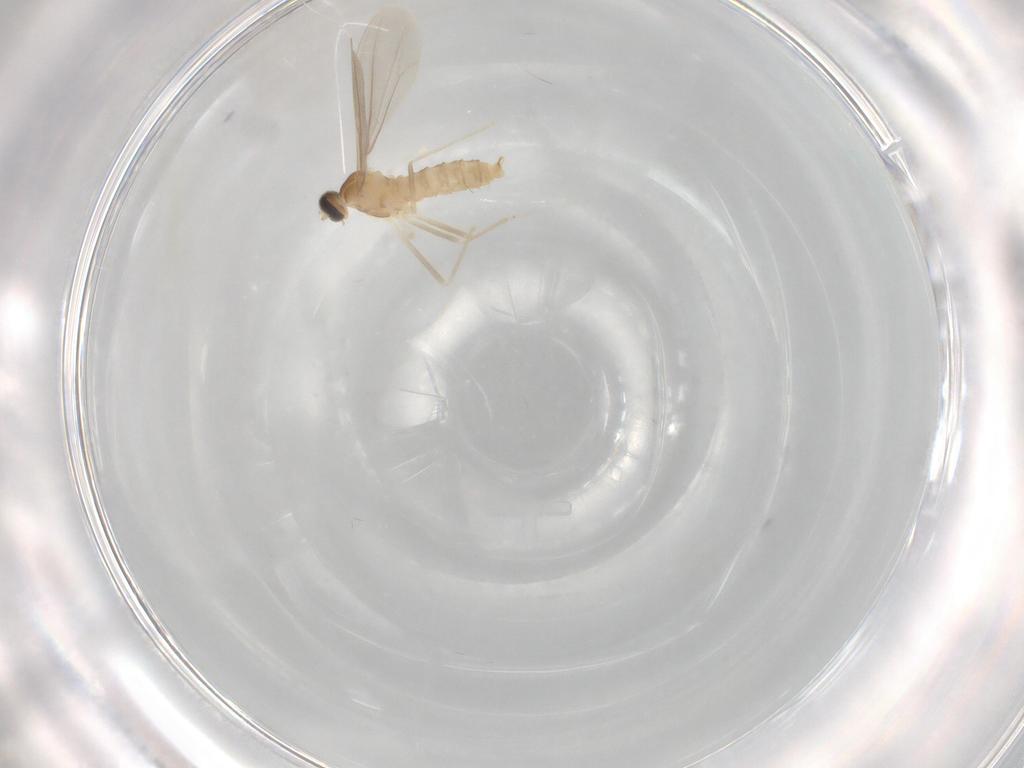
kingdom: Animalia
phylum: Arthropoda
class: Insecta
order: Diptera
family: Cecidomyiidae
